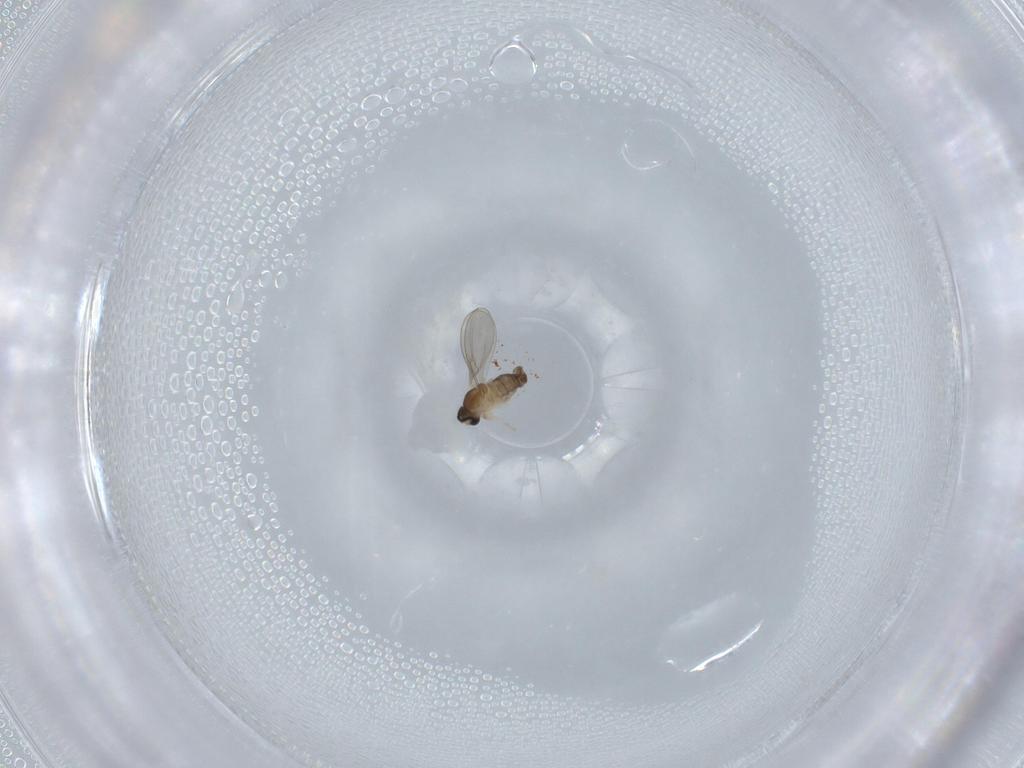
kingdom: Animalia
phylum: Arthropoda
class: Insecta
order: Diptera
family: Cecidomyiidae
